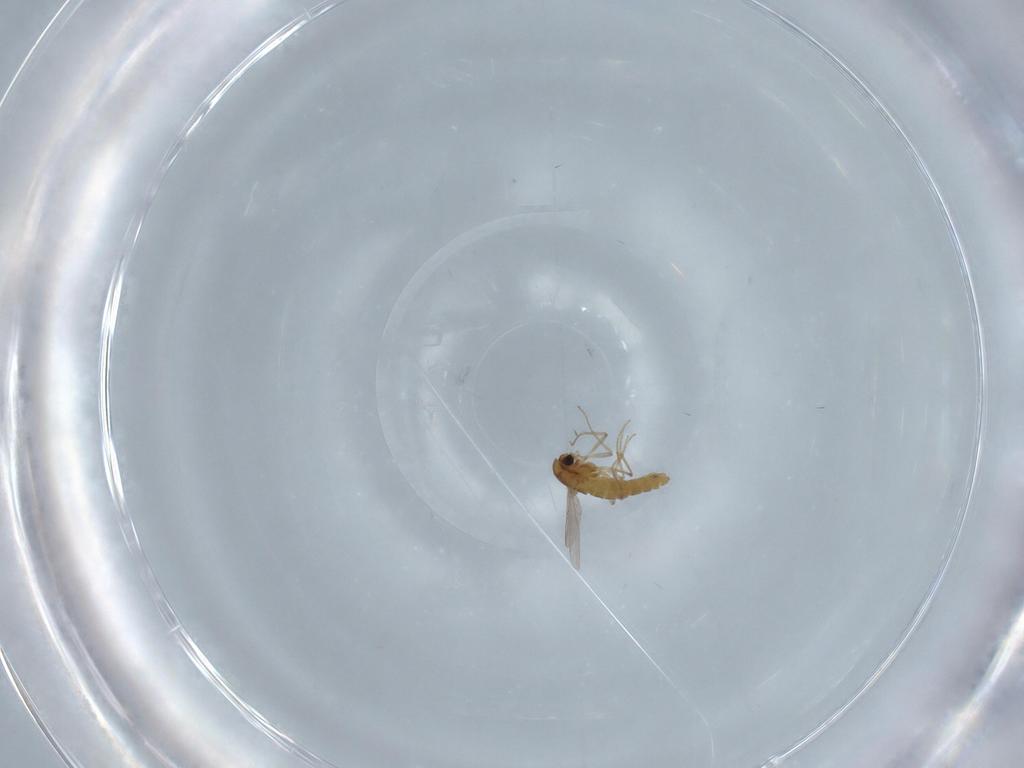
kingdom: Animalia
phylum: Arthropoda
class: Insecta
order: Diptera
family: Chironomidae
